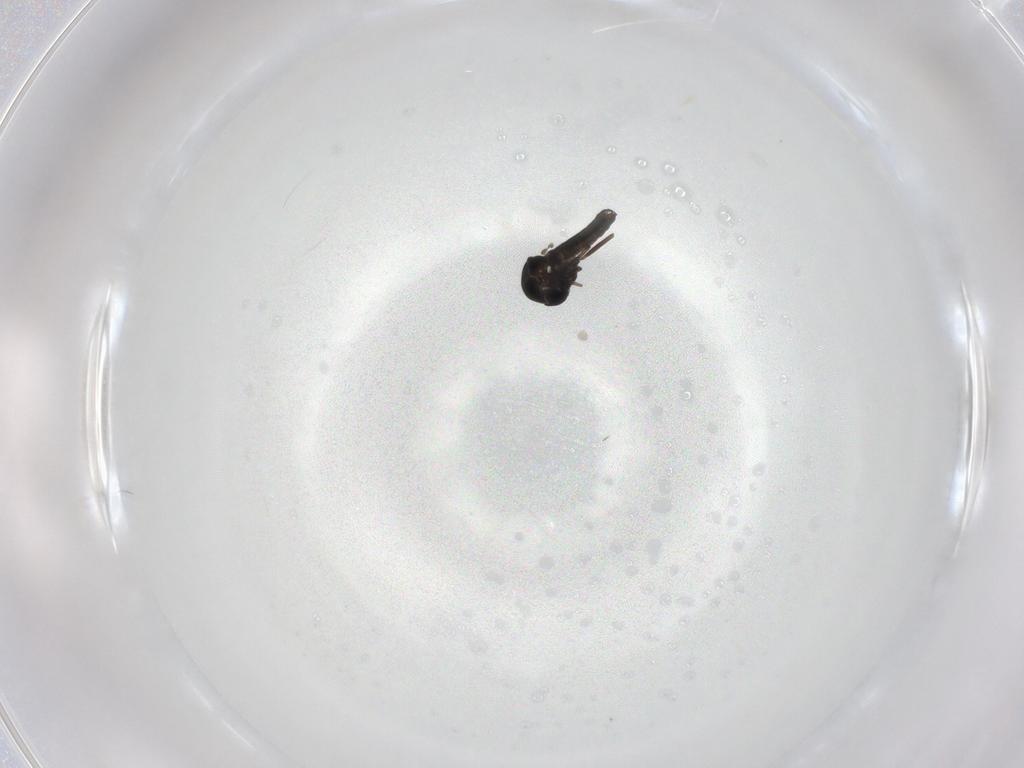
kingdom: Animalia
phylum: Arthropoda
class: Insecta
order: Diptera
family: Ceratopogonidae
